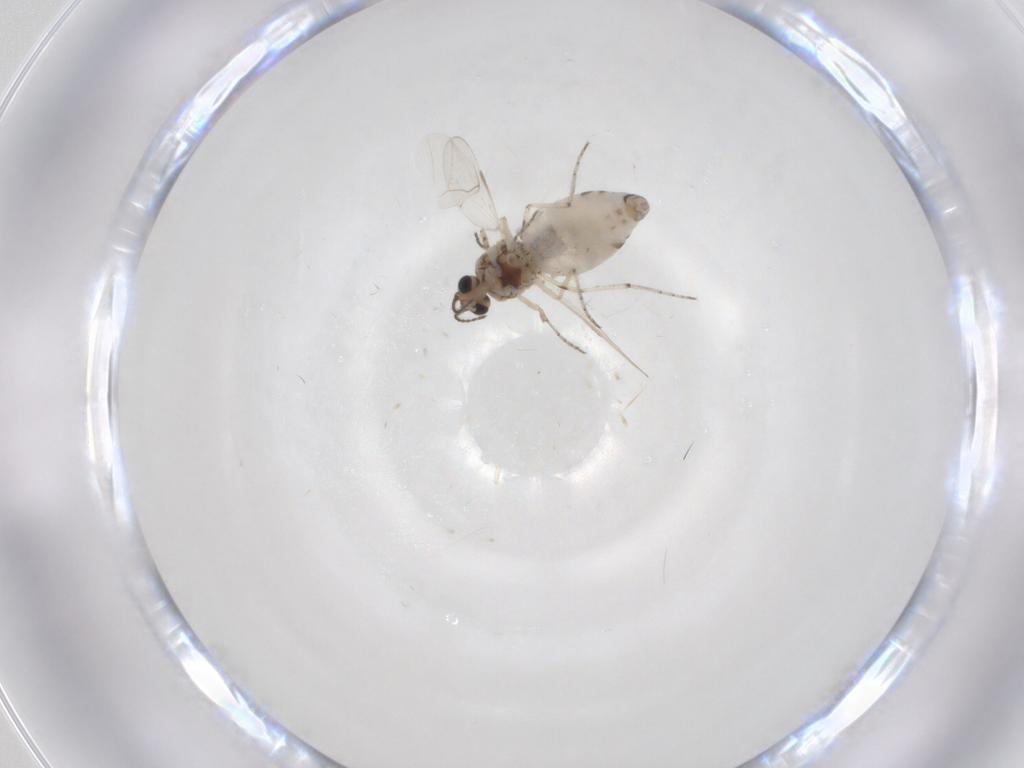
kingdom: Animalia
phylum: Arthropoda
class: Insecta
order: Diptera
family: Ceratopogonidae
